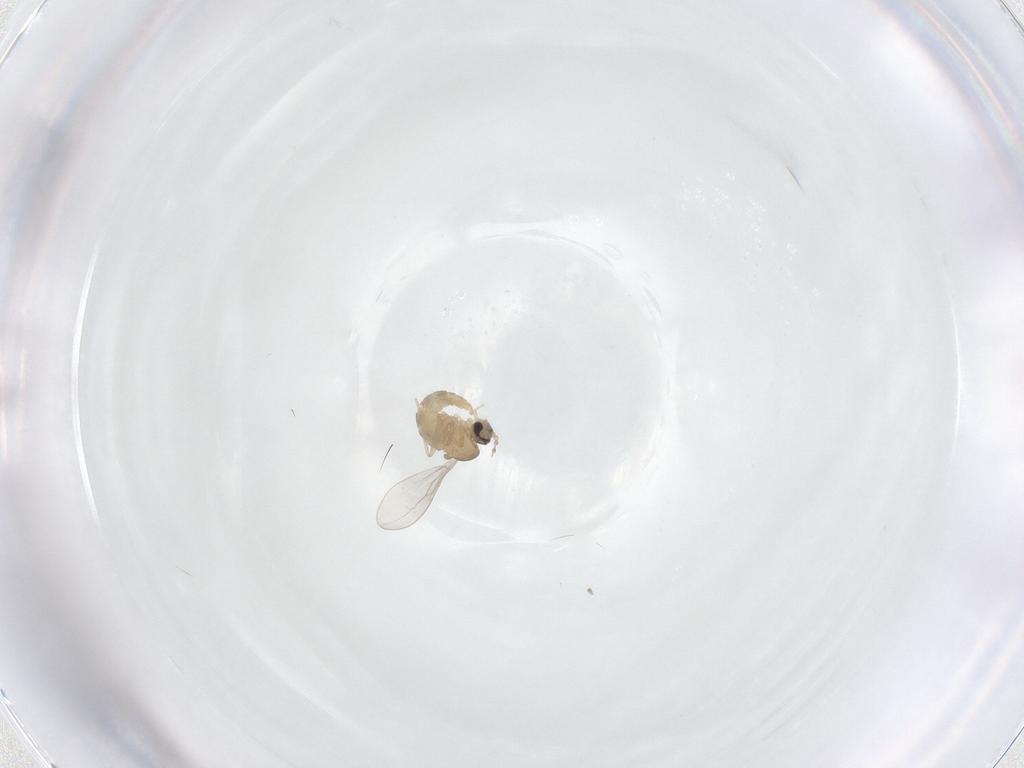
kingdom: Animalia
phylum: Arthropoda
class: Insecta
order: Diptera
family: Cecidomyiidae
